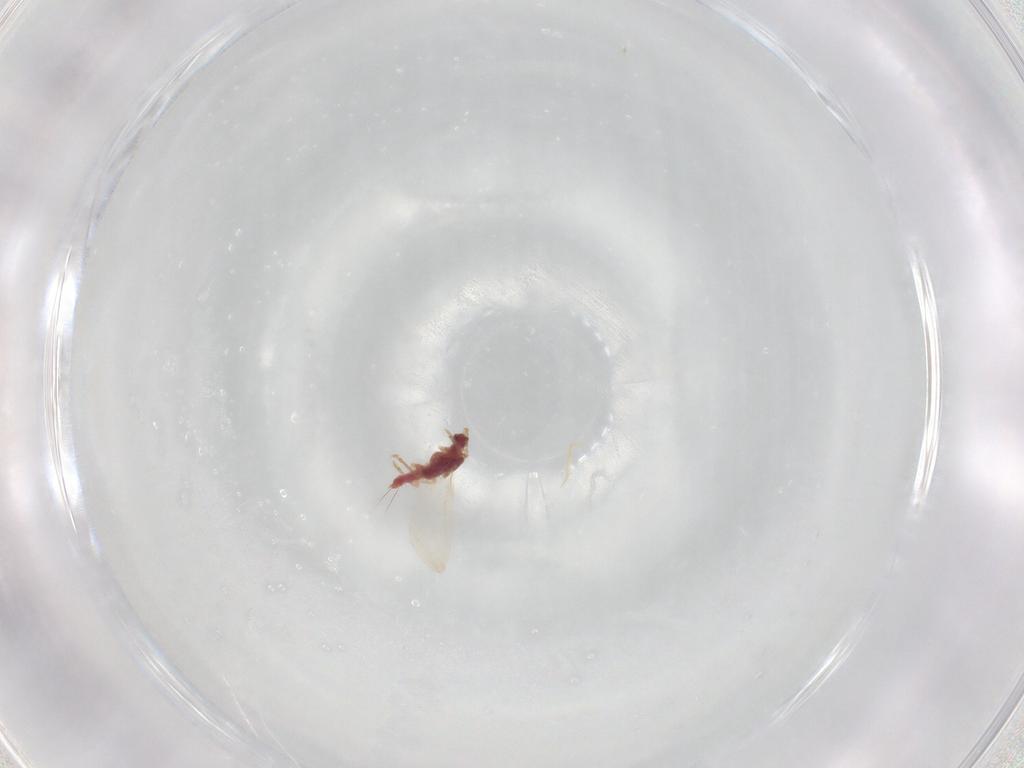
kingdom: Animalia
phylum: Arthropoda
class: Insecta
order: Hemiptera
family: Pseudococcidae
